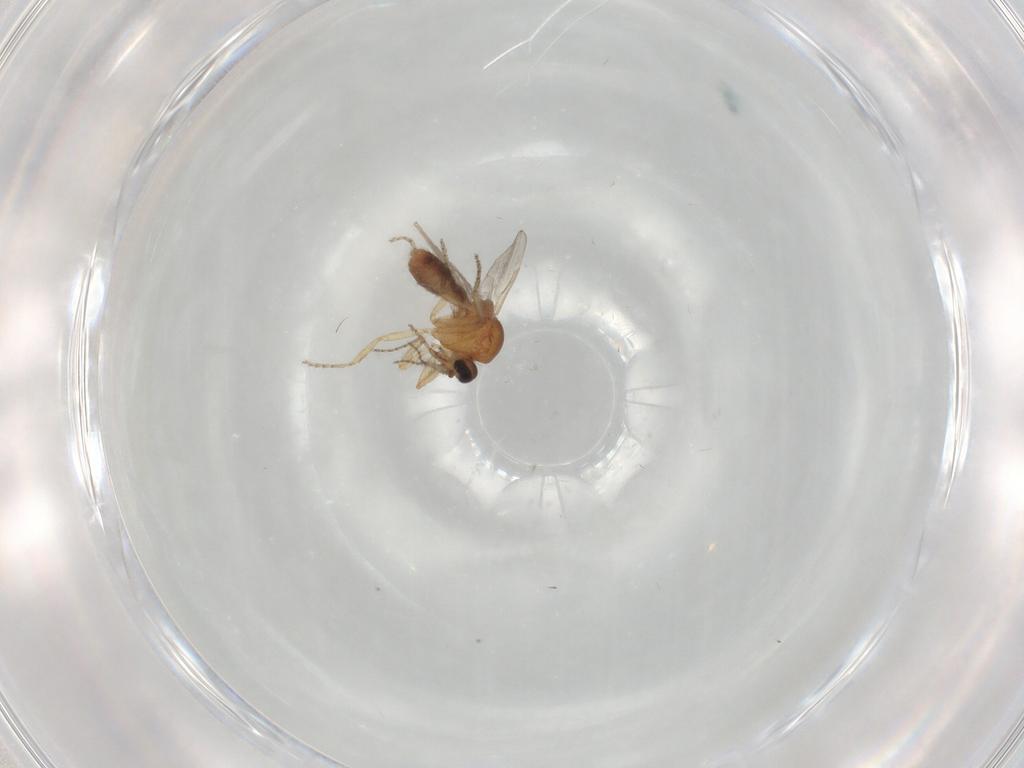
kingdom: Animalia
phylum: Arthropoda
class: Insecta
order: Diptera
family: Ceratopogonidae
